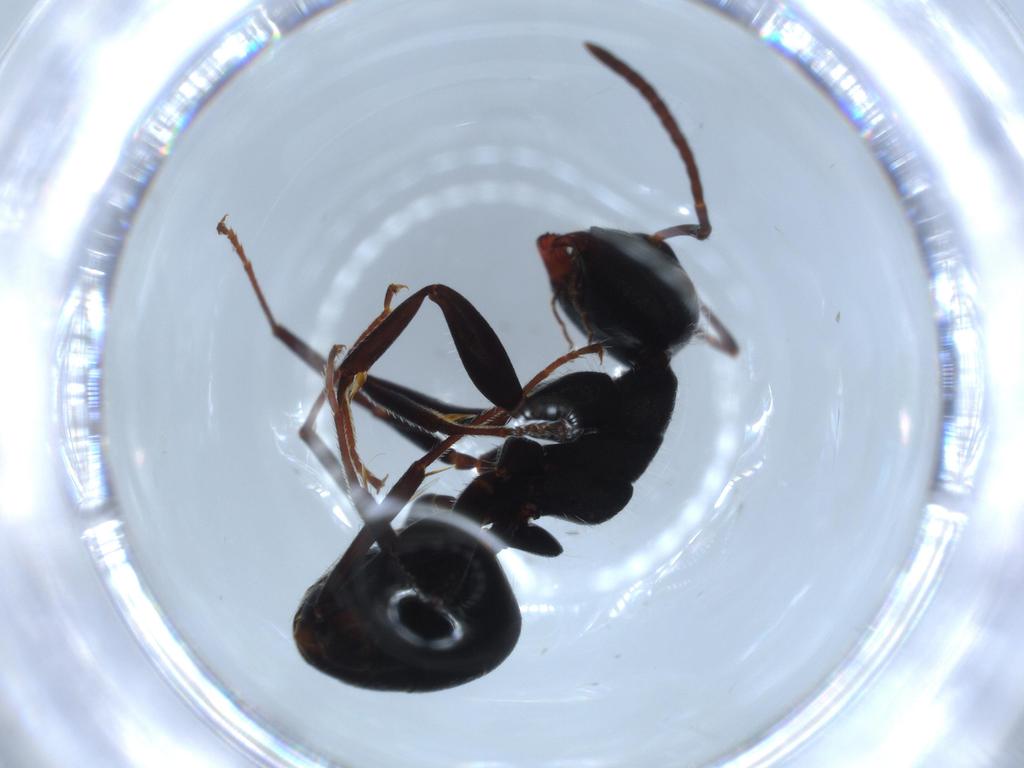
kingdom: Animalia
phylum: Arthropoda
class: Insecta
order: Hymenoptera
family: Formicidae
